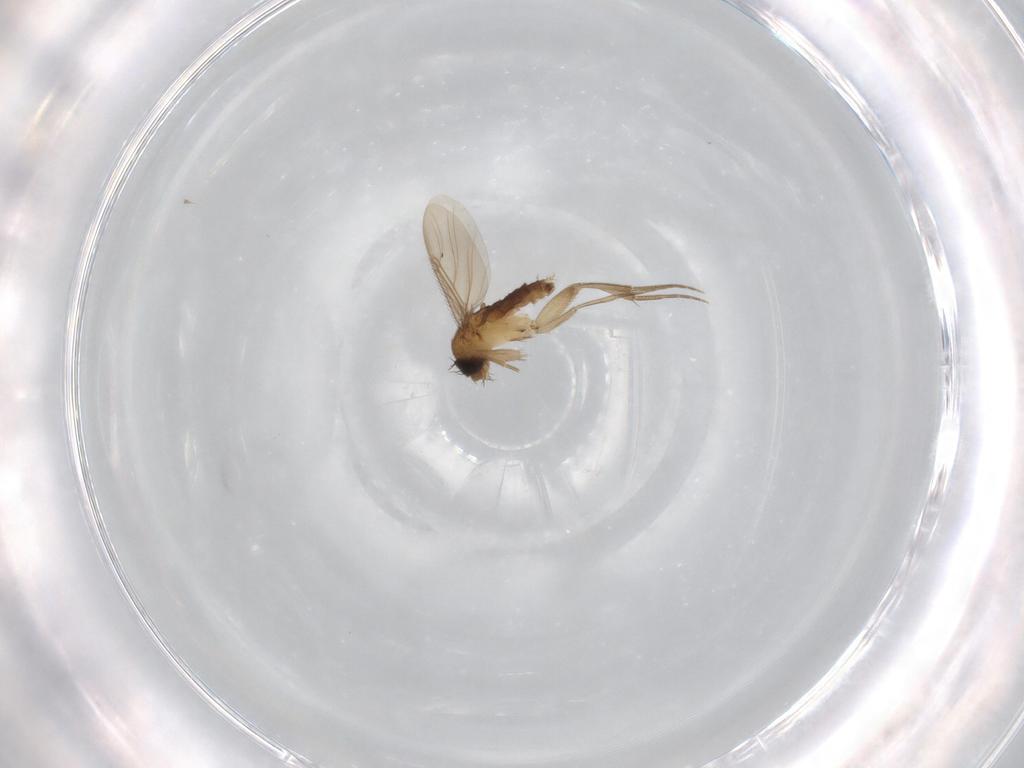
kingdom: Animalia
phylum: Arthropoda
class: Insecta
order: Diptera
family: Phoridae
